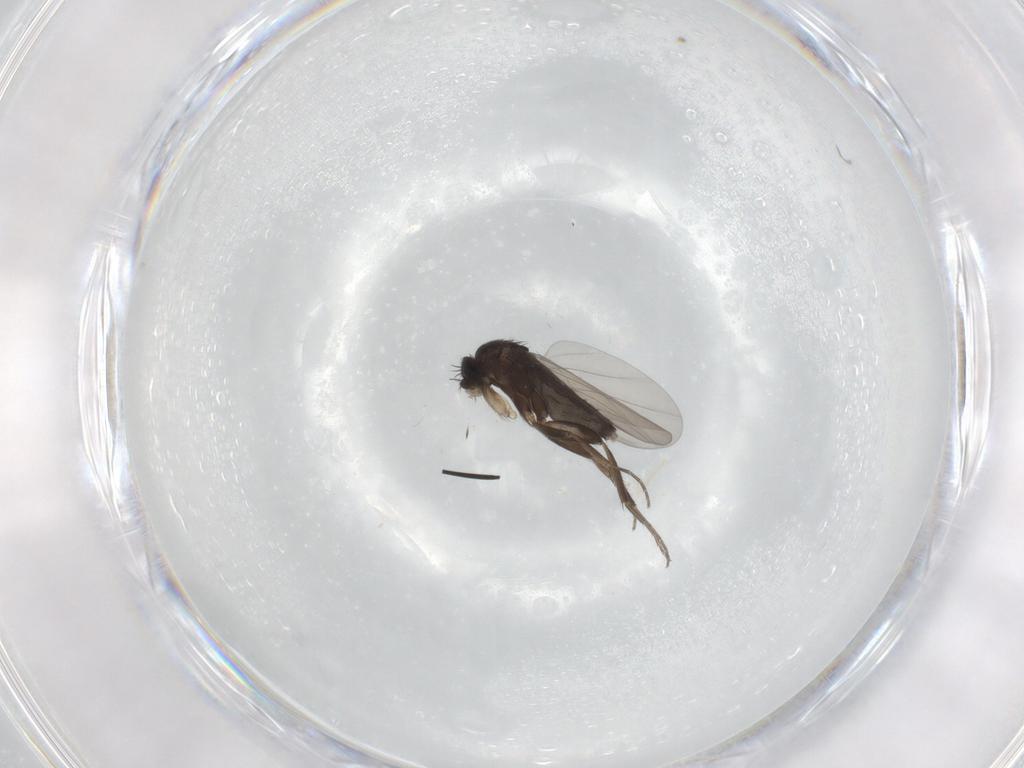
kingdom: Animalia
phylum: Arthropoda
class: Insecta
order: Diptera
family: Phoridae
